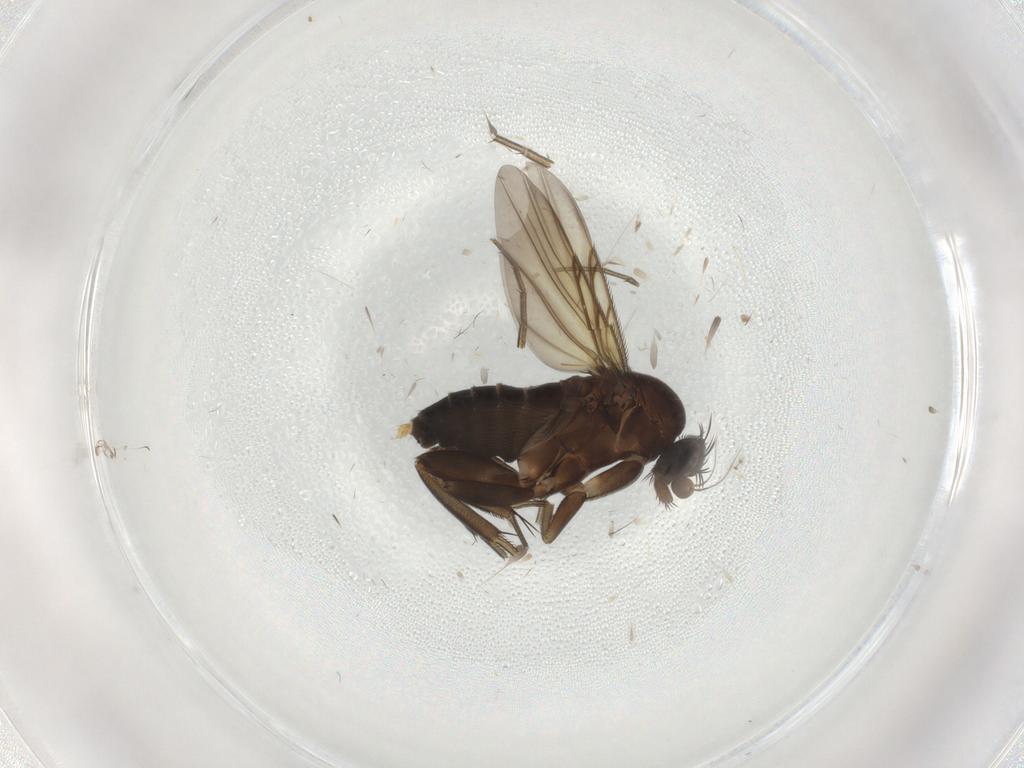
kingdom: Animalia
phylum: Arthropoda
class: Insecta
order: Diptera
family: Phoridae
